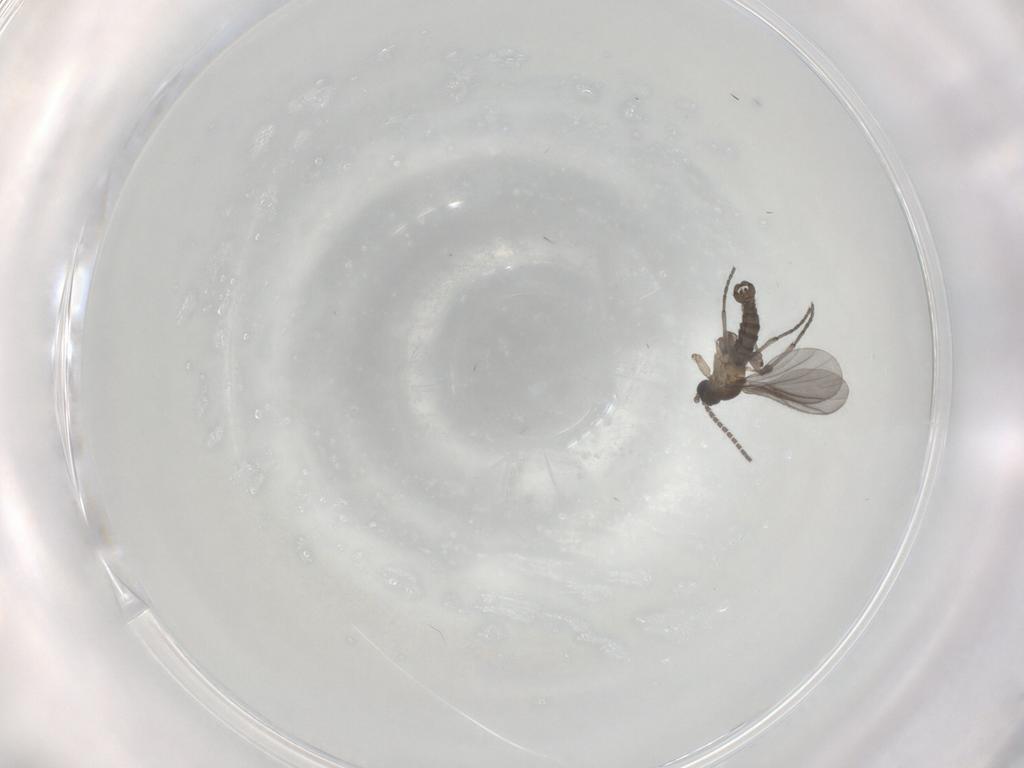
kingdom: Animalia
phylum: Arthropoda
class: Insecta
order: Diptera
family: Sciaridae
